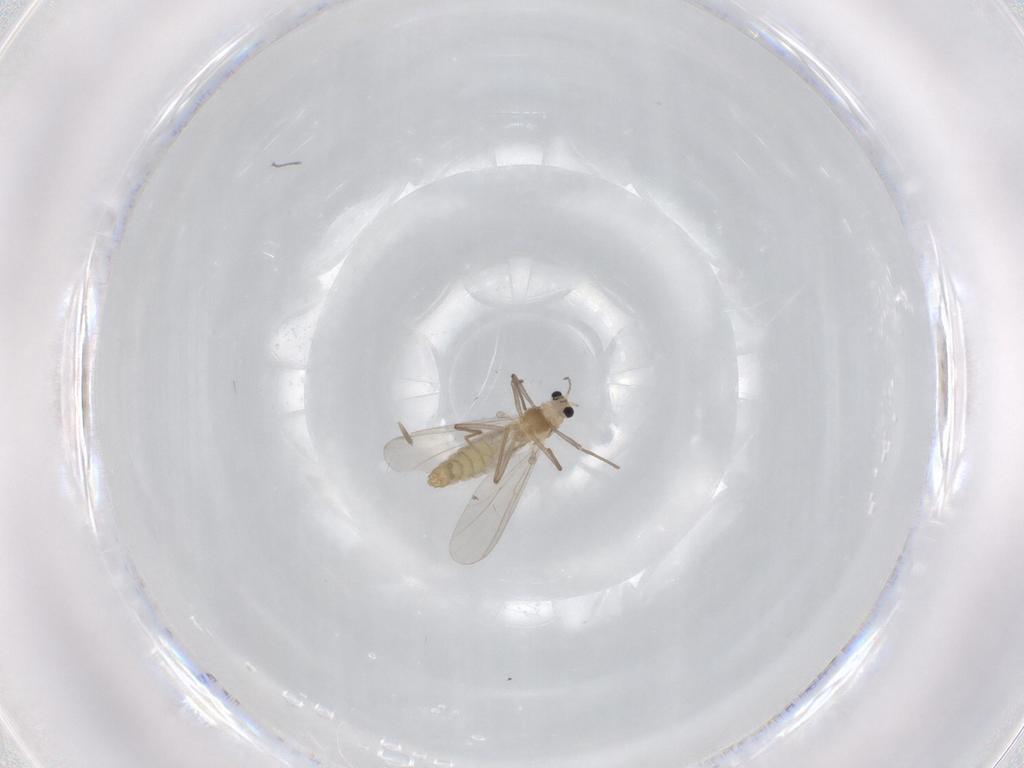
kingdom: Animalia
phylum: Arthropoda
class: Insecta
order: Diptera
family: Chironomidae
